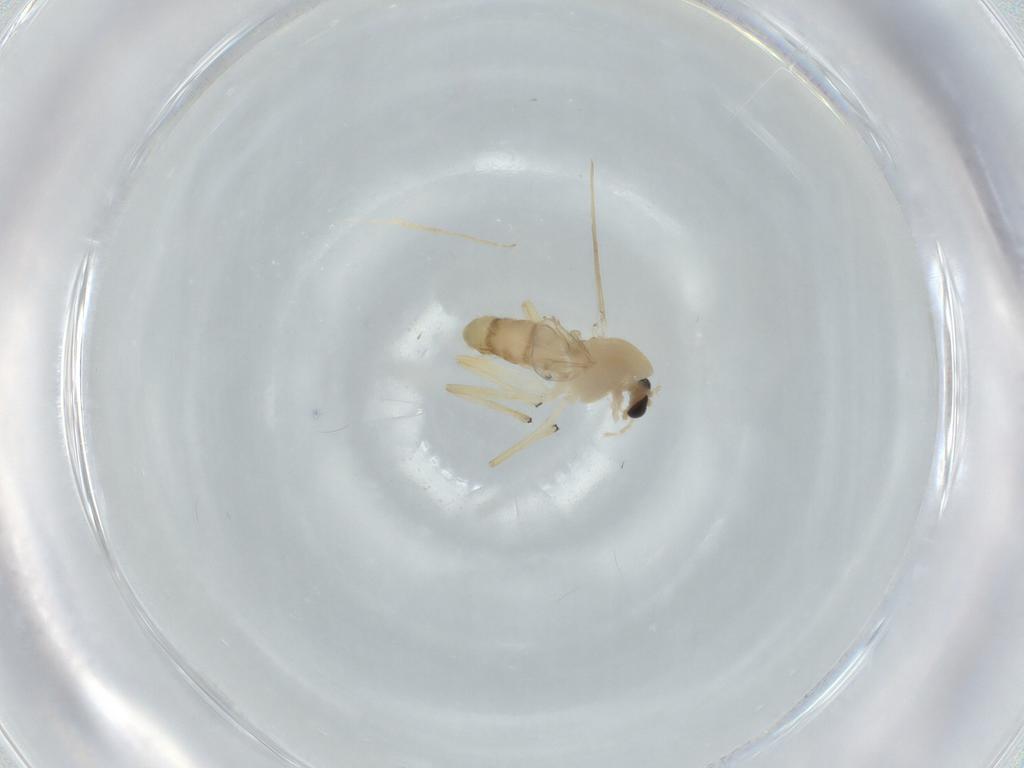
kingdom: Animalia
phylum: Arthropoda
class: Insecta
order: Diptera
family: Chironomidae
